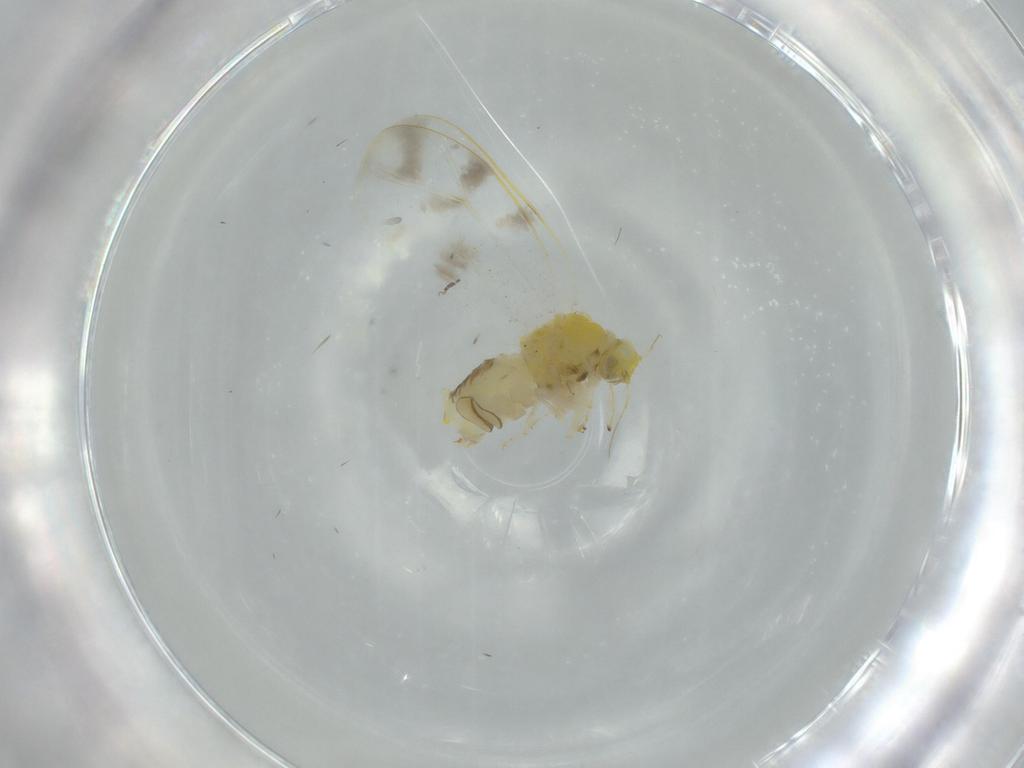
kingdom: Animalia
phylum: Arthropoda
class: Insecta
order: Hemiptera
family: Aleyrodidae
